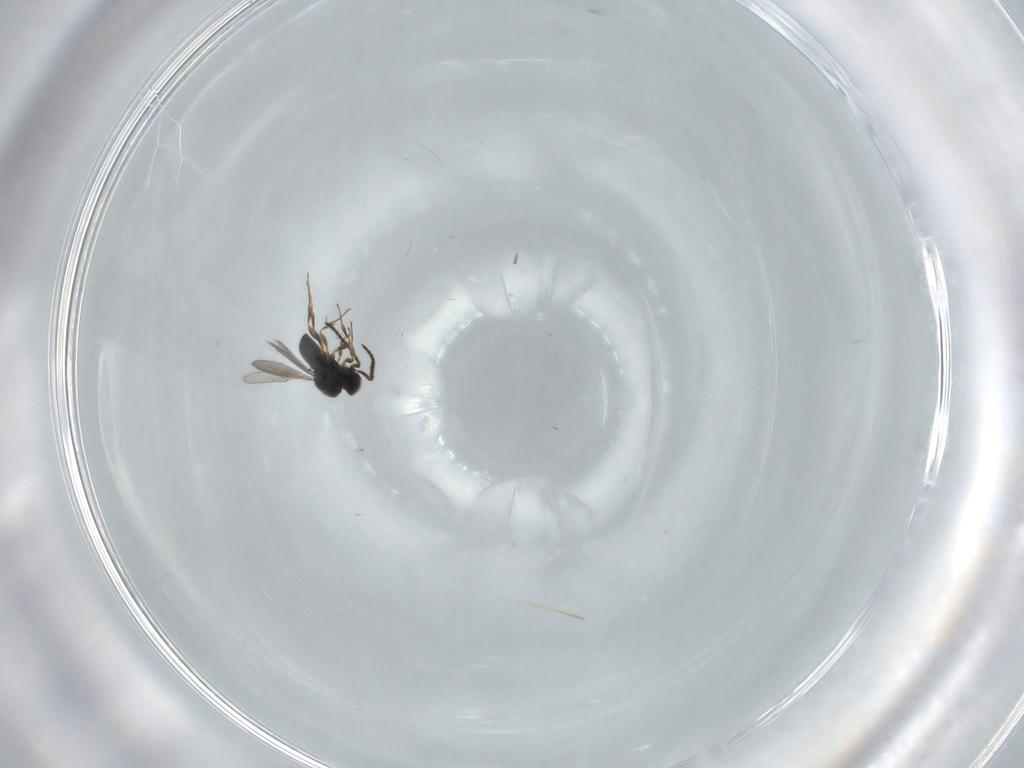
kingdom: Animalia
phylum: Arthropoda
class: Insecta
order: Hymenoptera
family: Scelionidae
